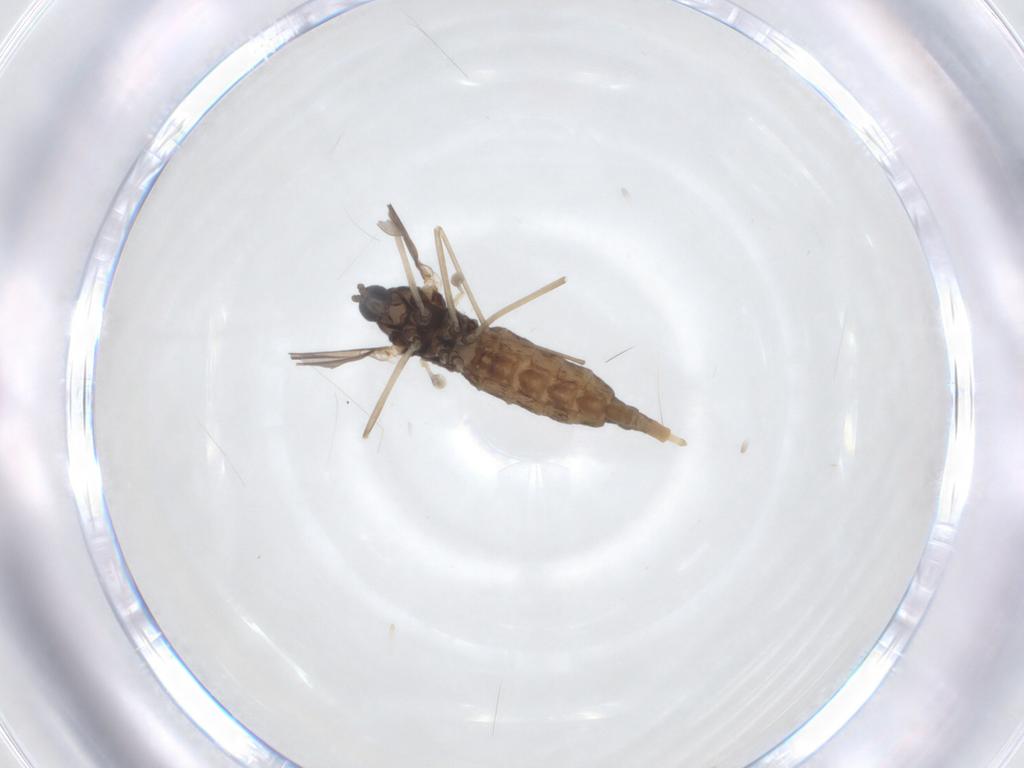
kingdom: Animalia
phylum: Arthropoda
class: Insecta
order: Diptera
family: Cecidomyiidae
